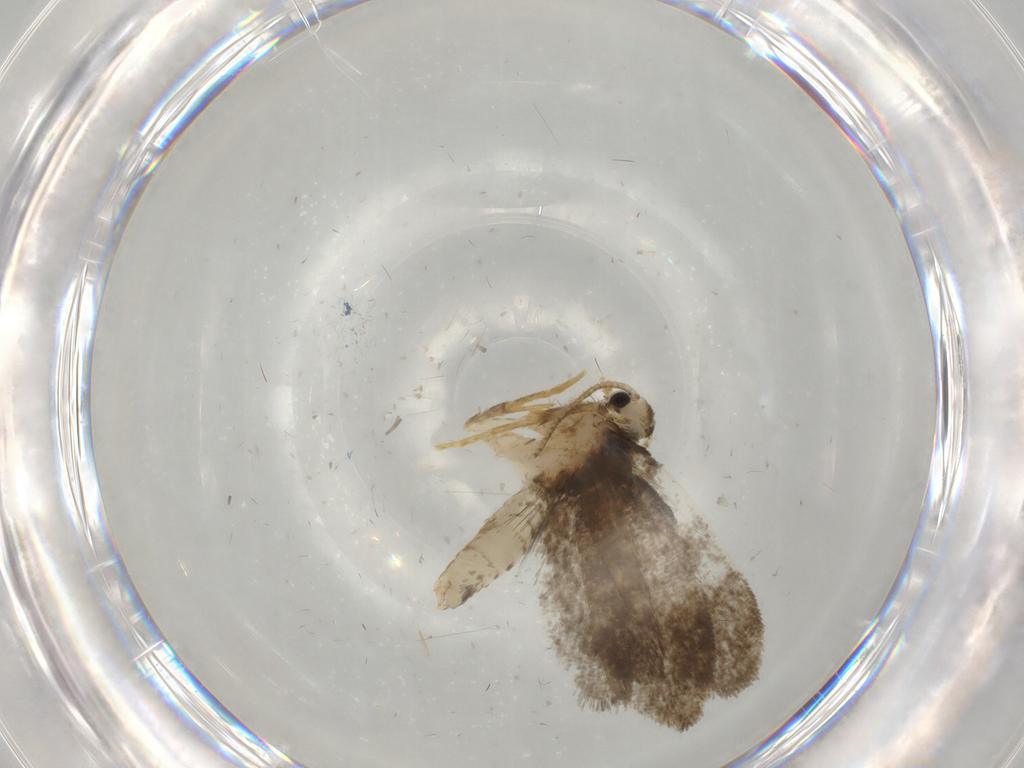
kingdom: Animalia
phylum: Arthropoda
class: Insecta
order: Lepidoptera
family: Psychidae
